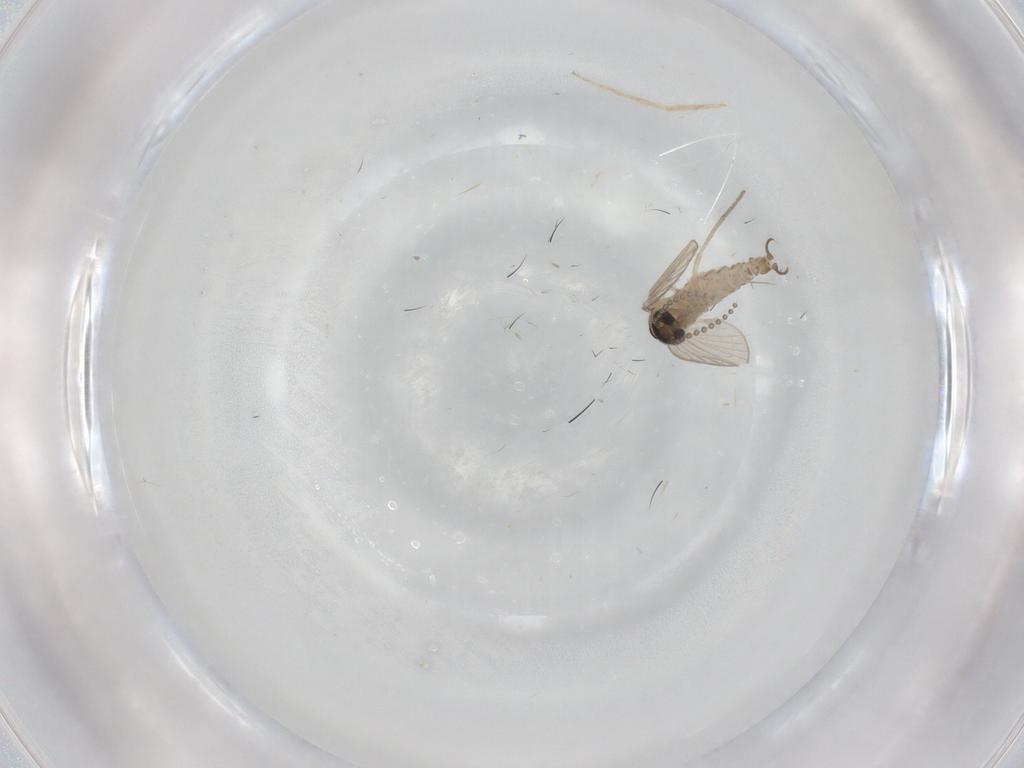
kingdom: Animalia
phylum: Arthropoda
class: Insecta
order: Diptera
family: Psychodidae
